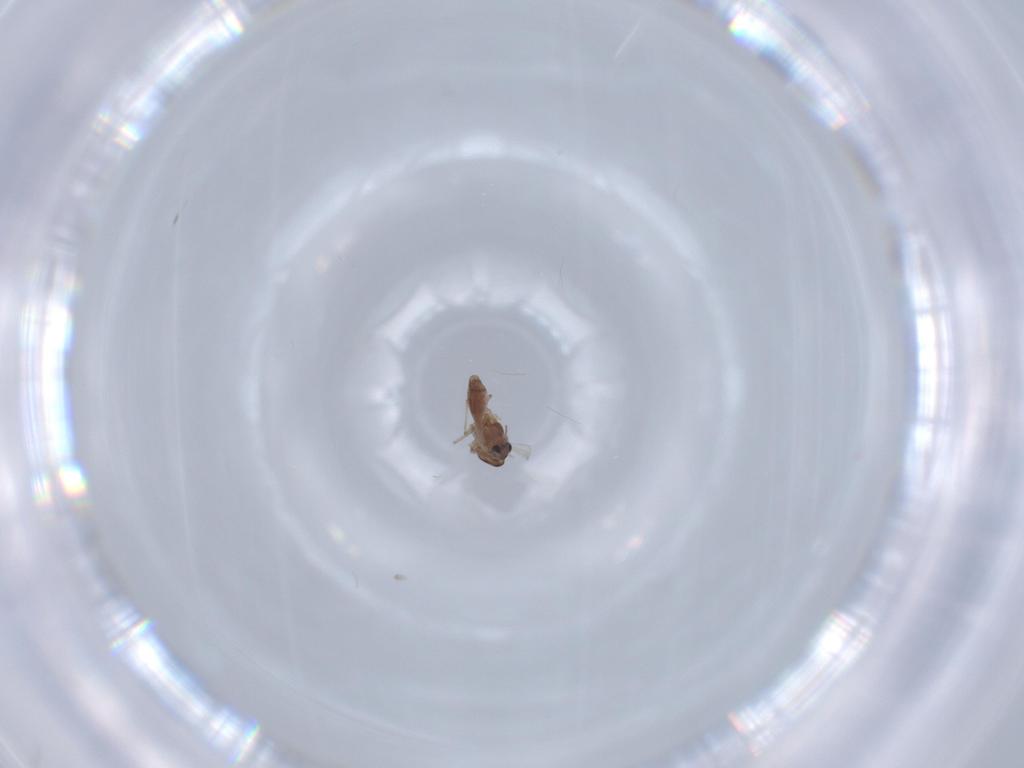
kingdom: Animalia
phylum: Arthropoda
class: Insecta
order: Diptera
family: Chironomidae
